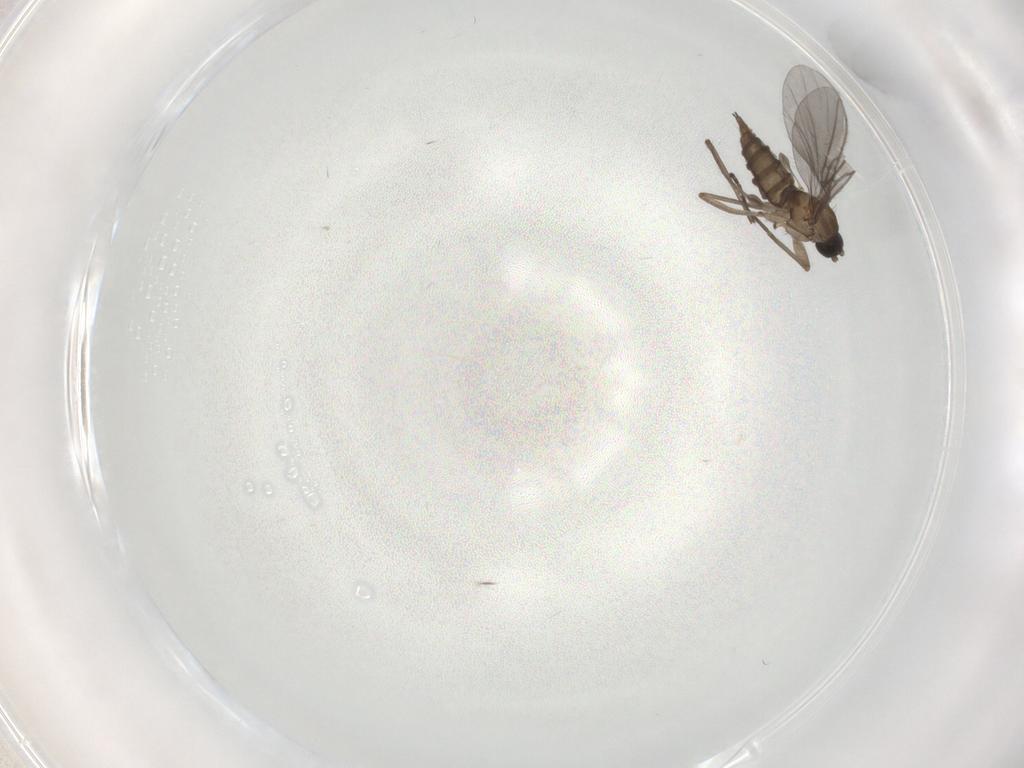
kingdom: Animalia
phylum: Arthropoda
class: Insecta
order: Diptera
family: Sciaridae
